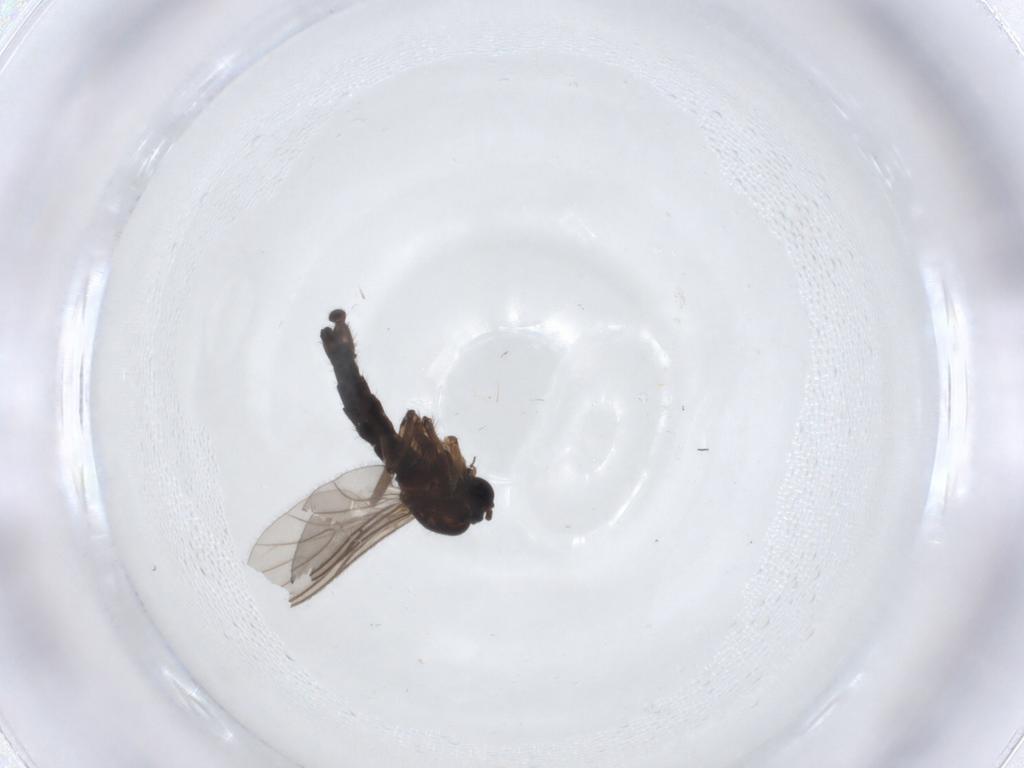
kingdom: Animalia
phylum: Arthropoda
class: Insecta
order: Diptera
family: Phoridae
